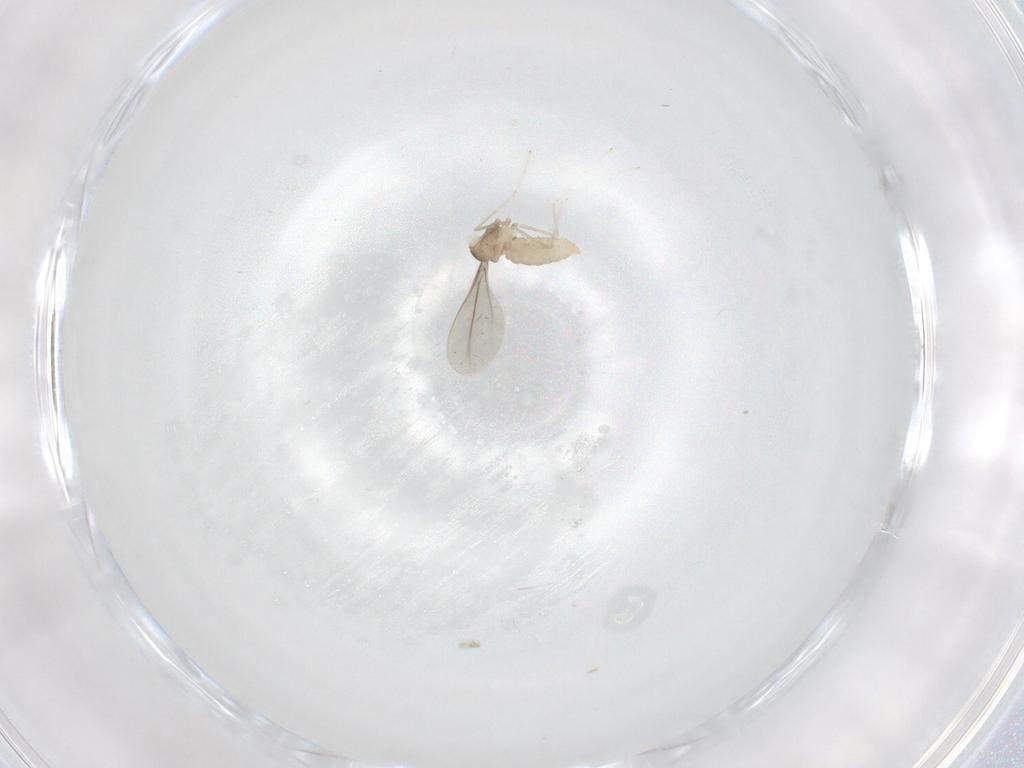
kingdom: Animalia
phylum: Arthropoda
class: Insecta
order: Diptera
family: Cecidomyiidae
